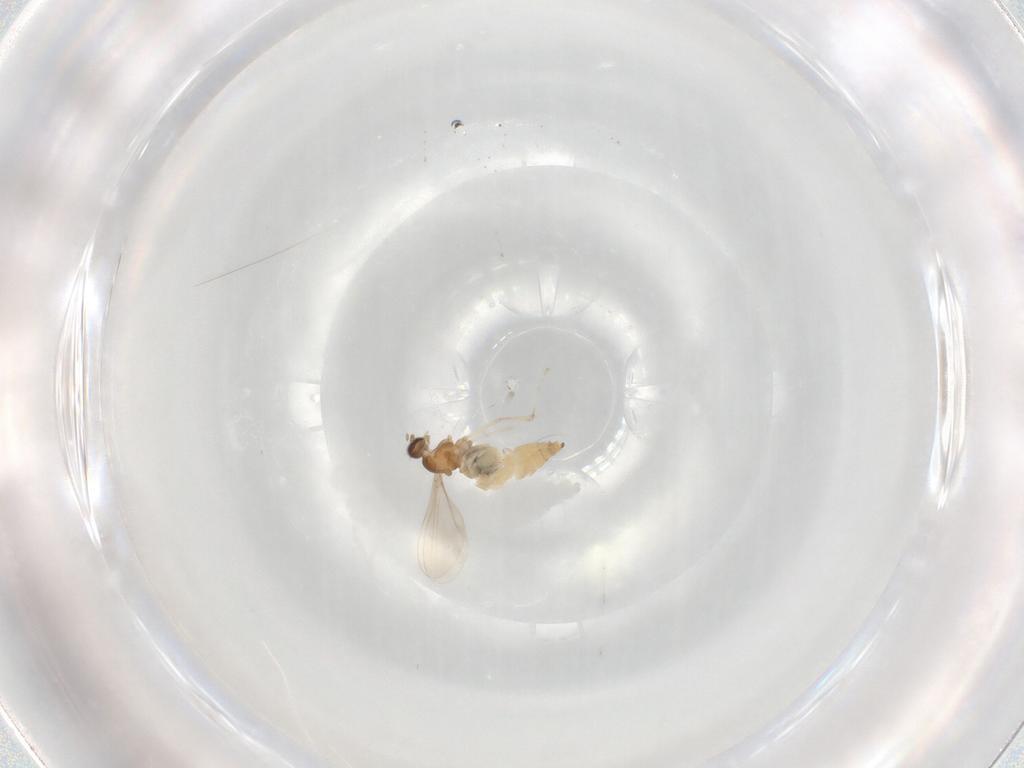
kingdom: Animalia
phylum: Arthropoda
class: Insecta
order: Diptera
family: Cecidomyiidae
